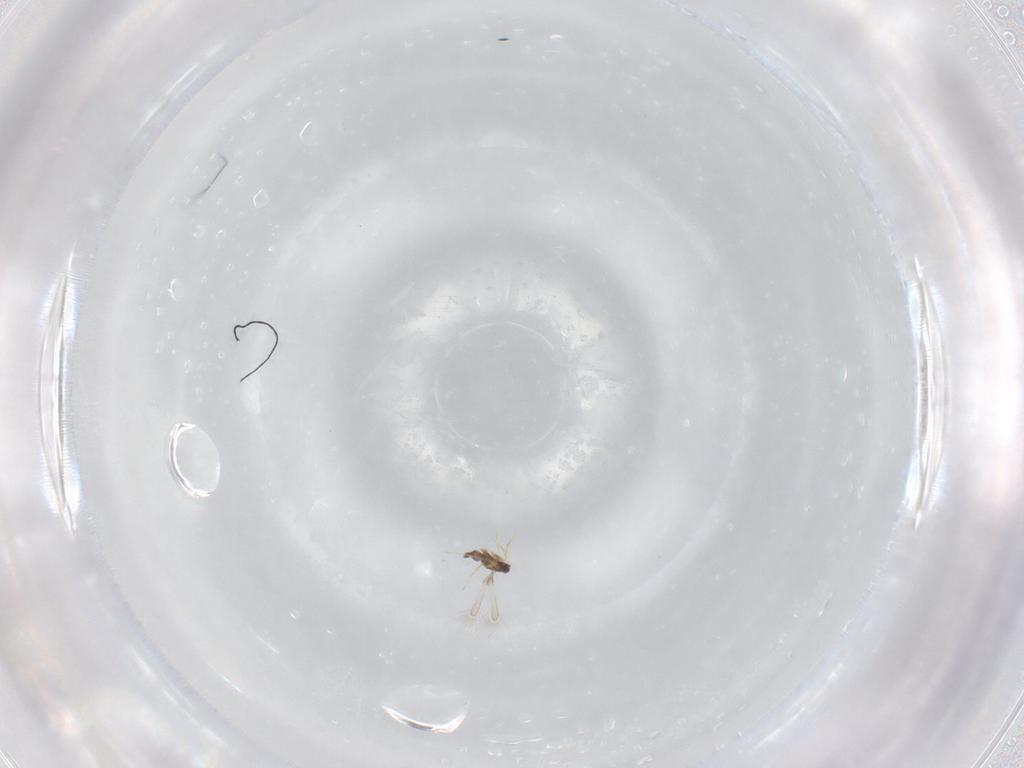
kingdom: Animalia
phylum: Arthropoda
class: Insecta
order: Hymenoptera
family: Mymaridae
